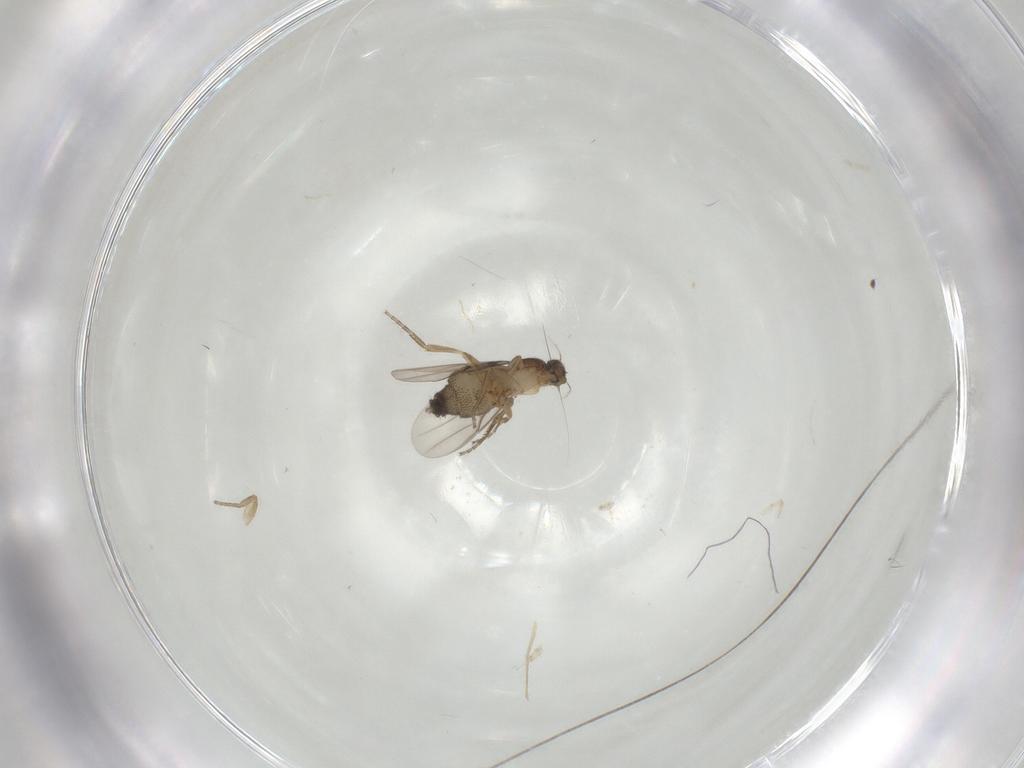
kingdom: Animalia
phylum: Arthropoda
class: Insecta
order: Diptera
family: Phoridae
